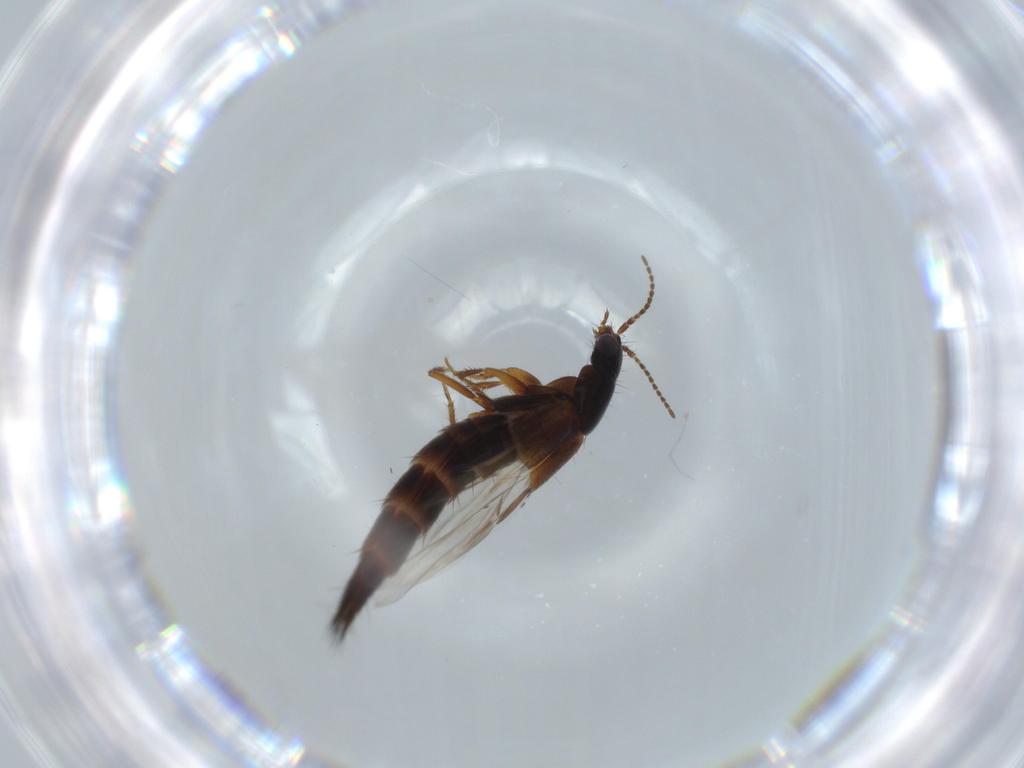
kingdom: Animalia
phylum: Arthropoda
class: Insecta
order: Coleoptera
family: Staphylinidae
